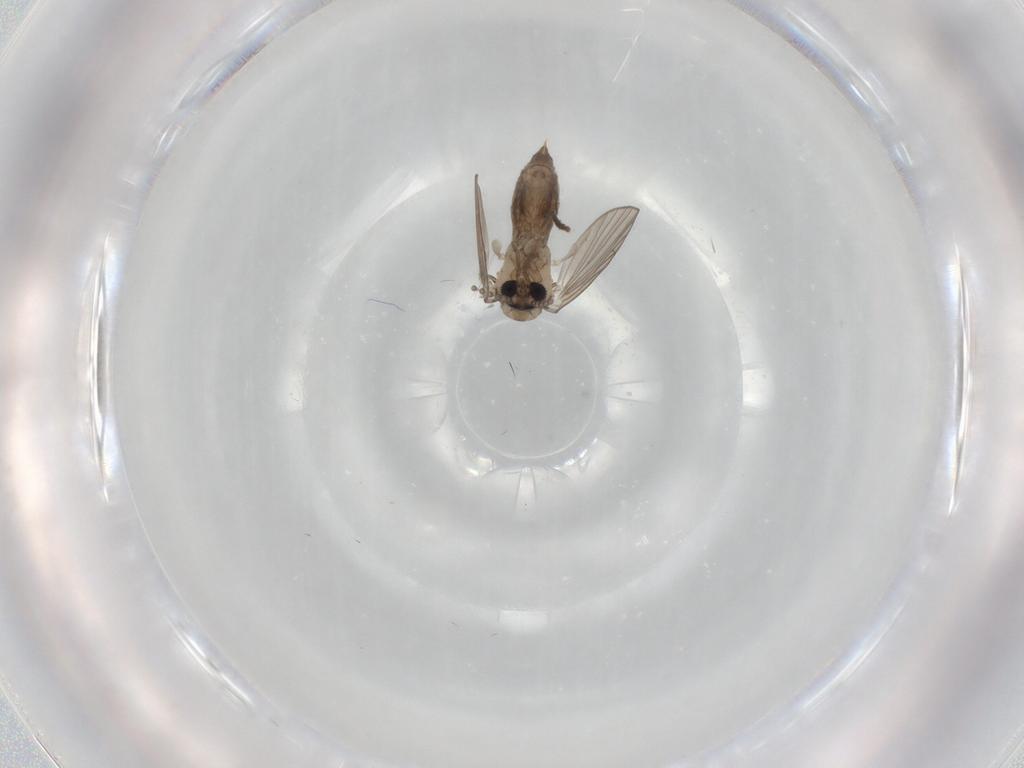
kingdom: Animalia
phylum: Arthropoda
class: Insecta
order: Diptera
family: Psychodidae
